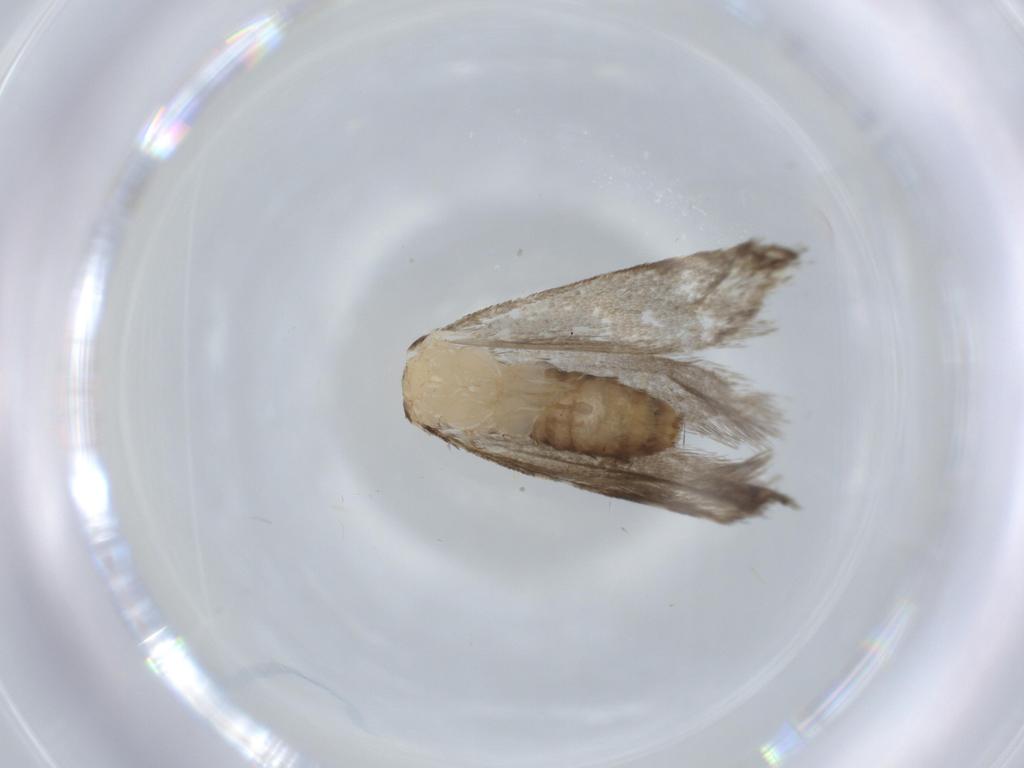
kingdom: Animalia
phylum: Arthropoda
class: Insecta
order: Lepidoptera
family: Tineidae
